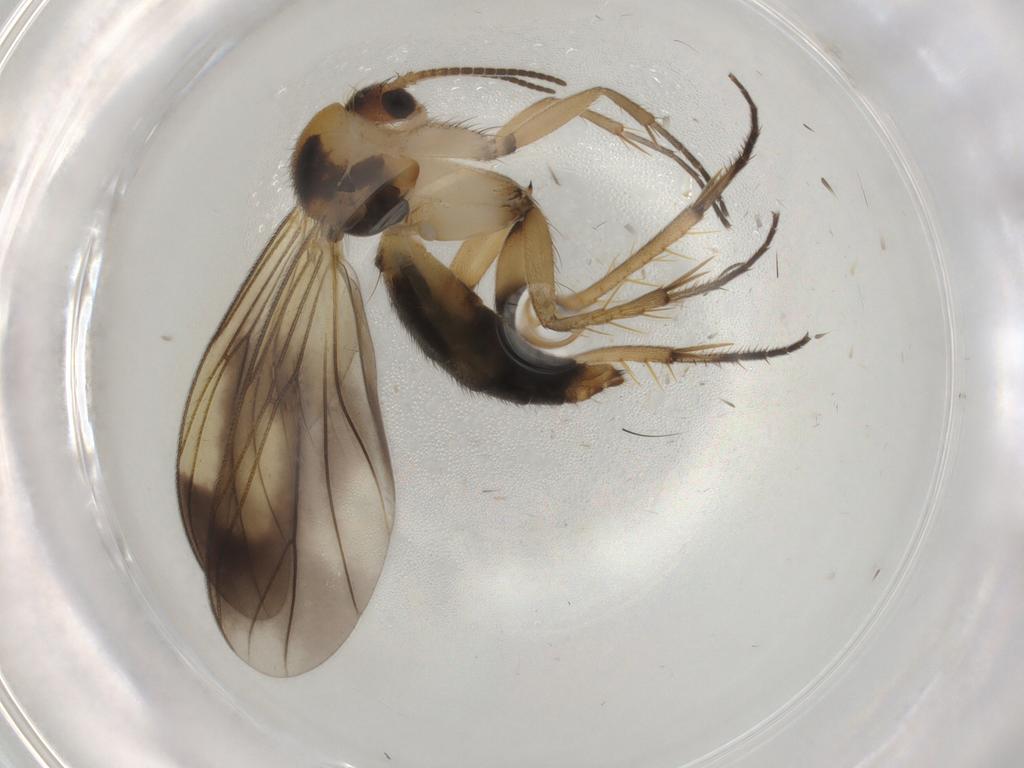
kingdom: Animalia
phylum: Arthropoda
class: Insecta
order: Diptera
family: Mycetophilidae
